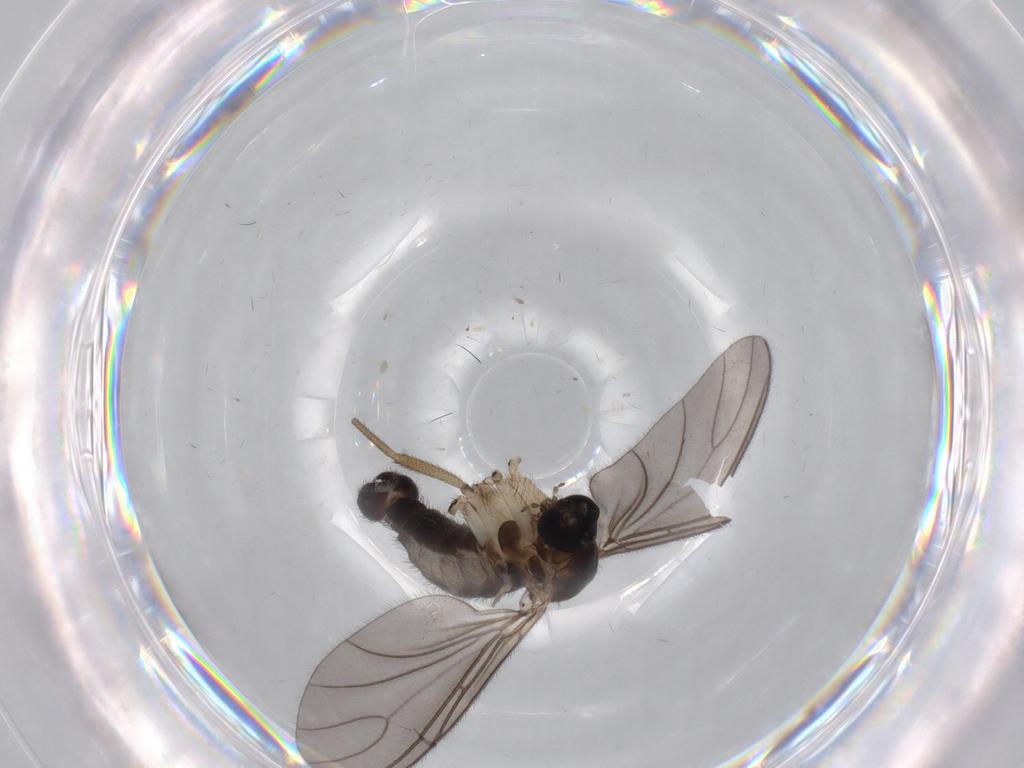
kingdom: Animalia
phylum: Arthropoda
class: Insecta
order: Diptera
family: Sciaridae
